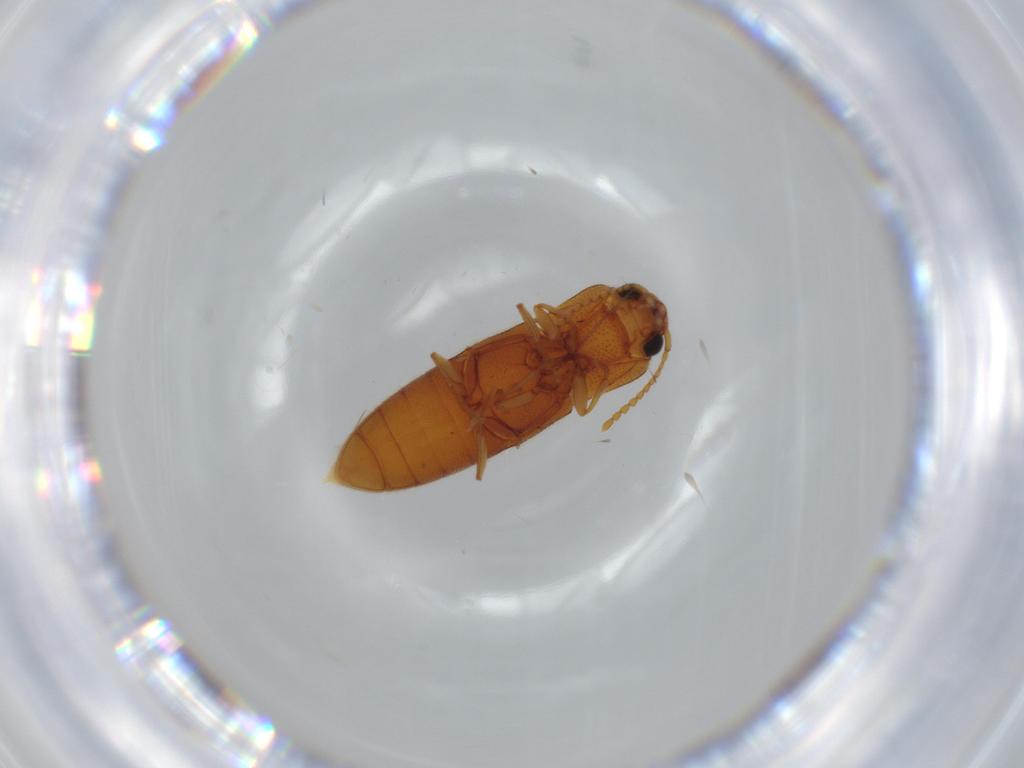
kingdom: Animalia
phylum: Arthropoda
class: Insecta
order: Coleoptera
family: Elateridae
